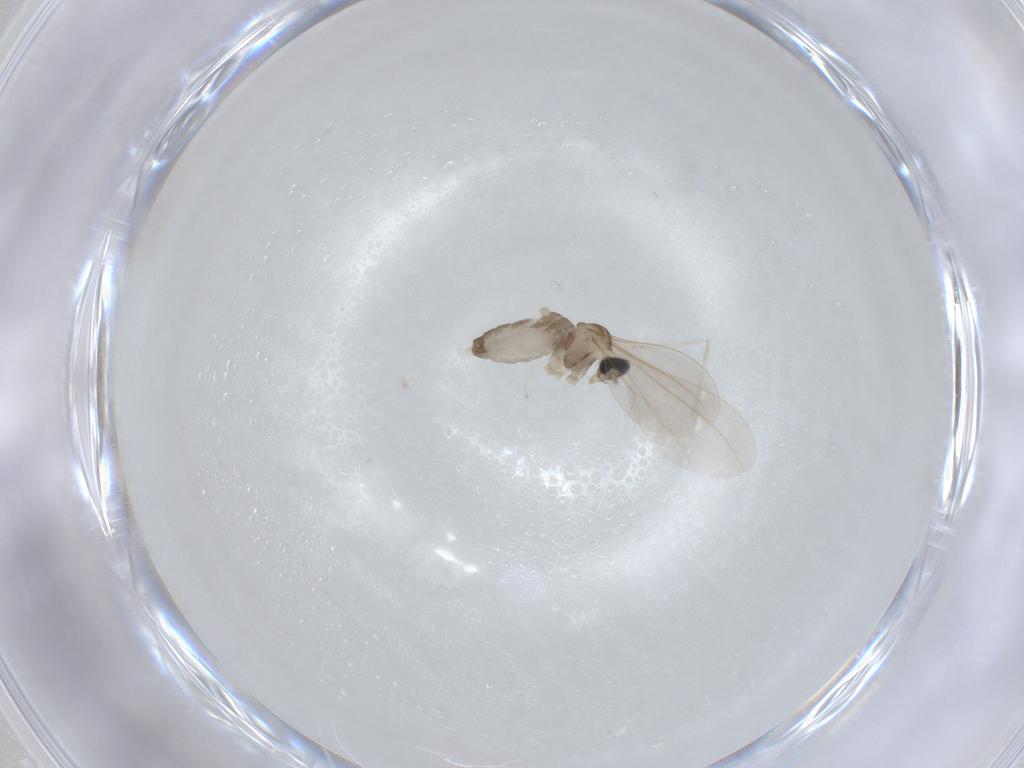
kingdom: Animalia
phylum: Arthropoda
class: Insecta
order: Diptera
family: Cecidomyiidae
